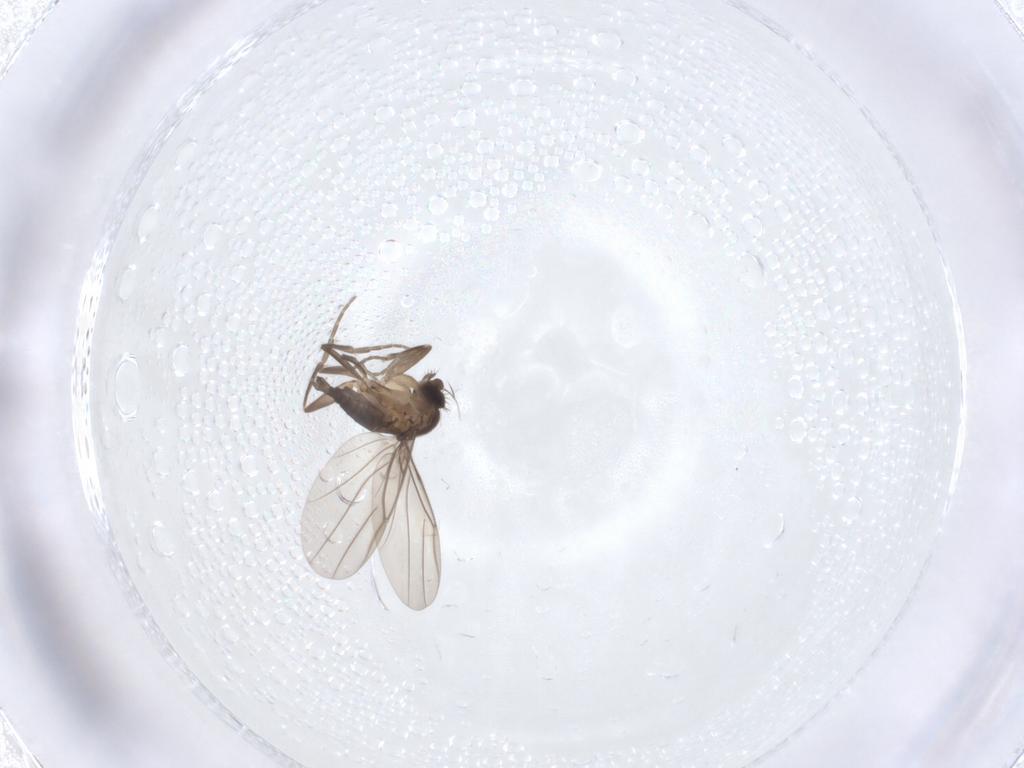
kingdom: Animalia
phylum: Arthropoda
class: Insecta
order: Diptera
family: Phoridae
